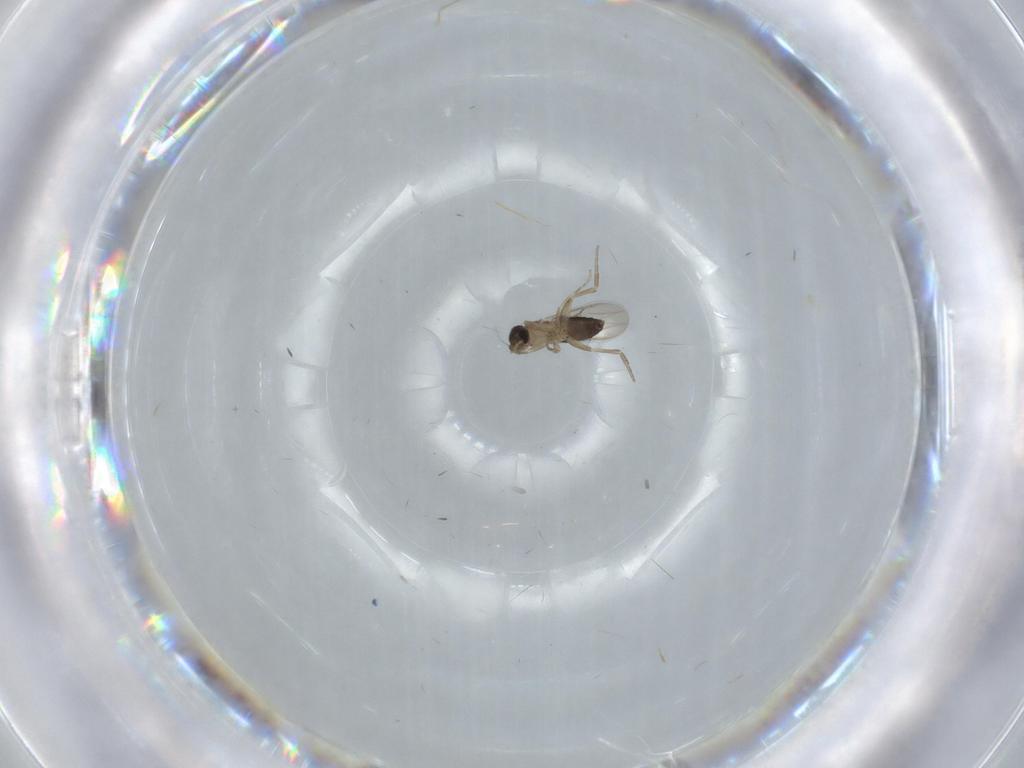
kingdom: Animalia
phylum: Arthropoda
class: Insecta
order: Diptera
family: Phoridae
